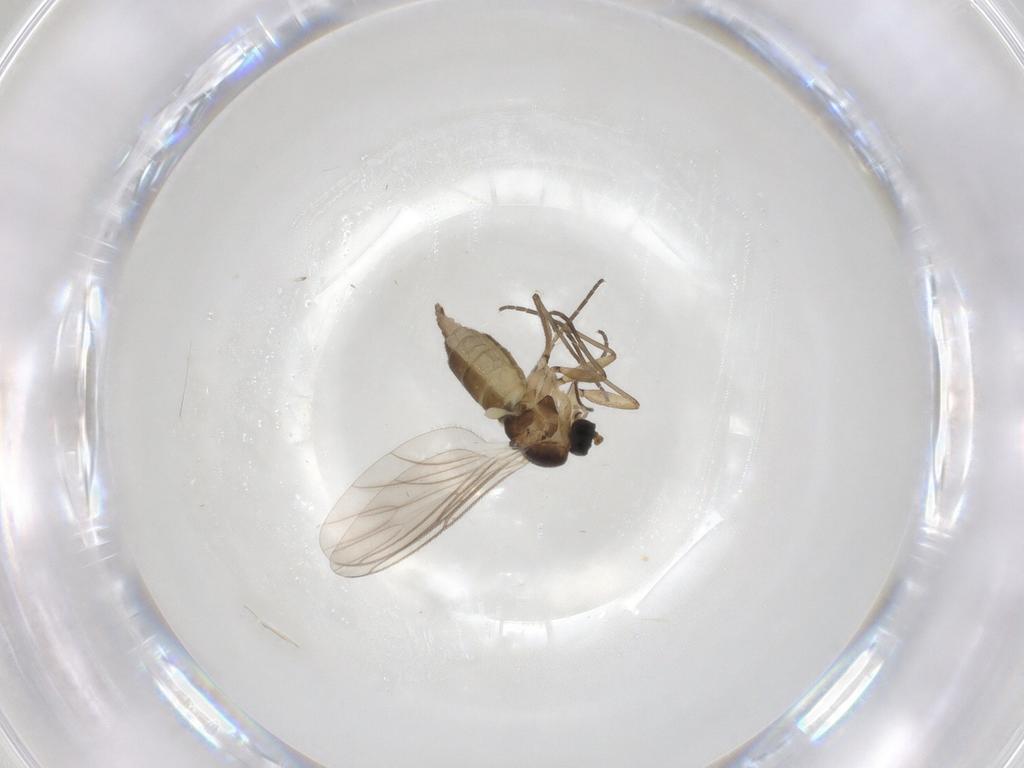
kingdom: Animalia
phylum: Arthropoda
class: Insecta
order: Diptera
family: Cecidomyiidae
